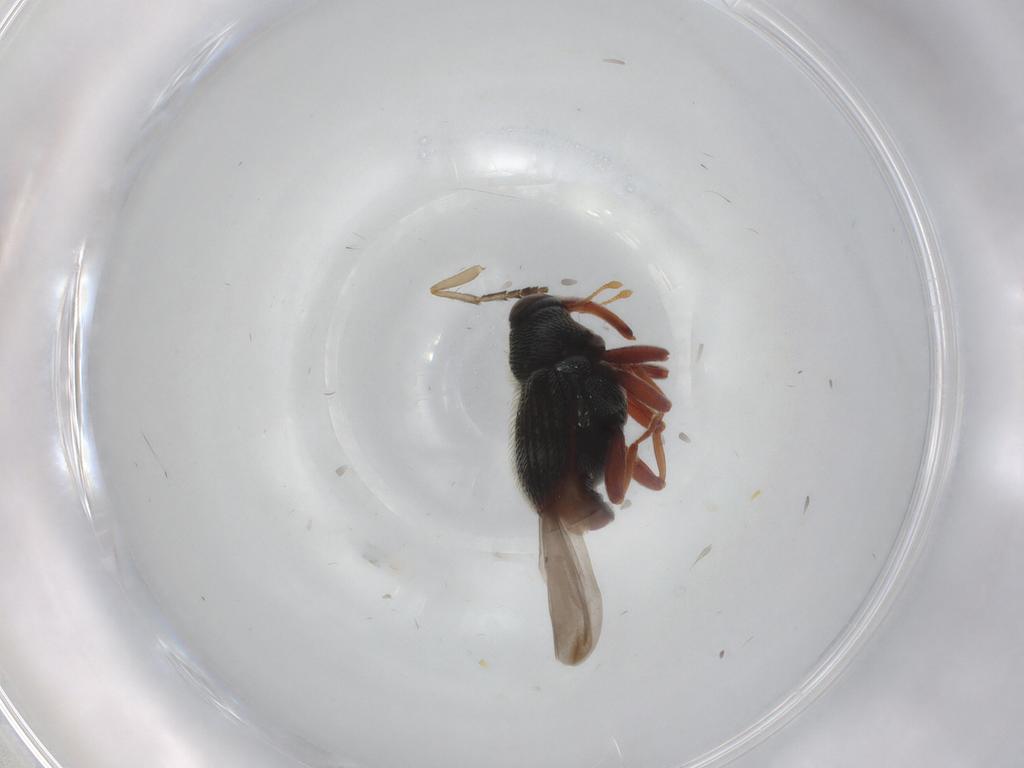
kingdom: Animalia
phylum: Arthropoda
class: Insecta
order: Coleoptera
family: Curculionidae
